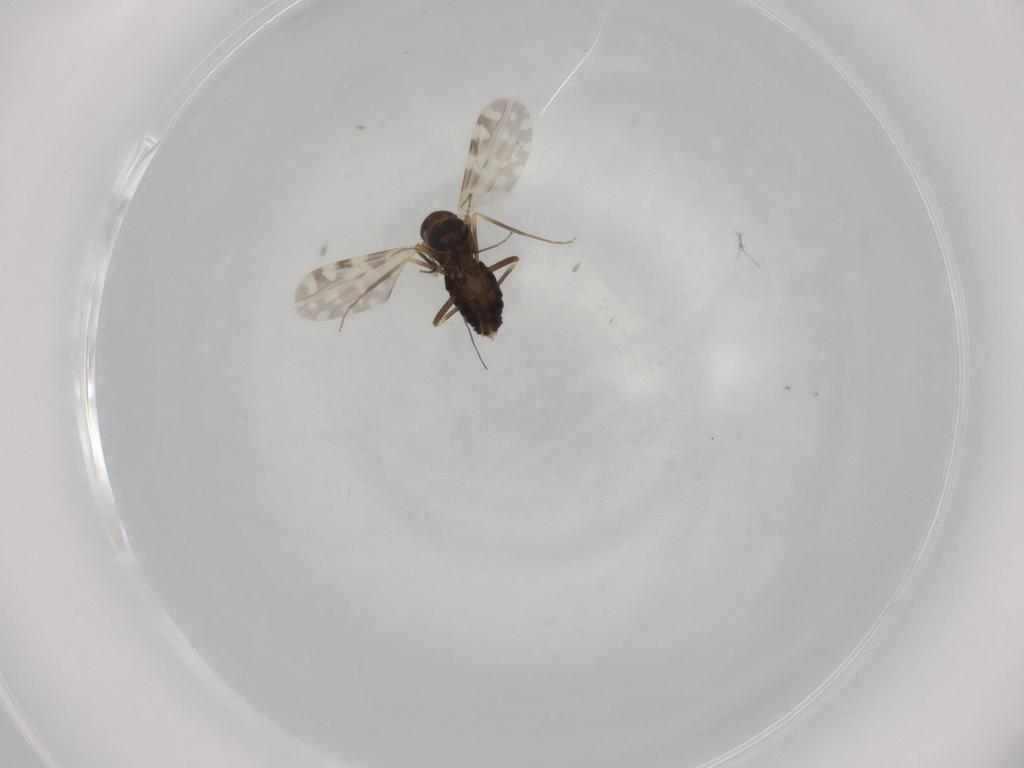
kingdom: Animalia
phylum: Arthropoda
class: Insecta
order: Diptera
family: Ceratopogonidae
